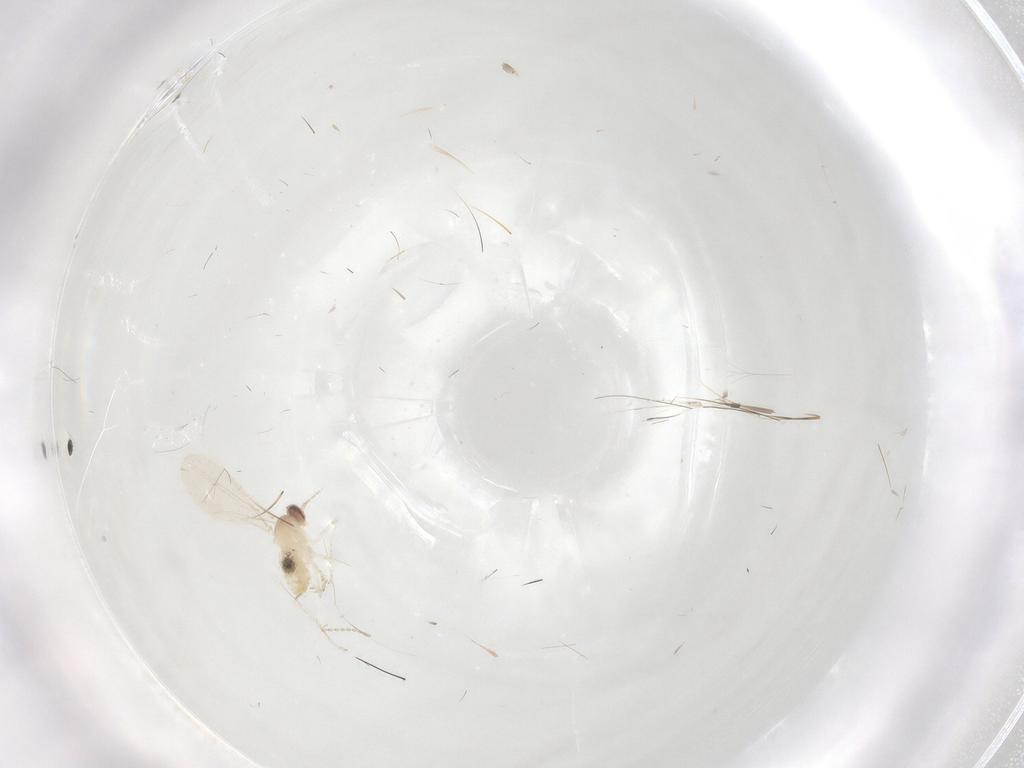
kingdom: Animalia
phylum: Arthropoda
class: Insecta
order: Diptera
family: Cecidomyiidae
